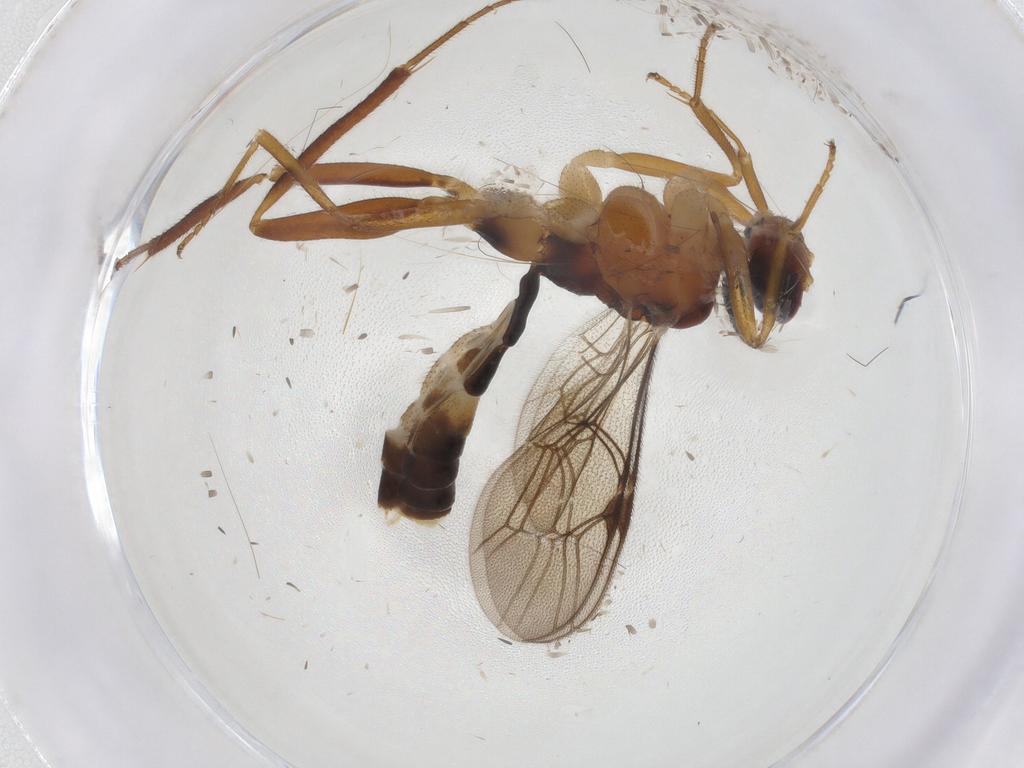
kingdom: Animalia
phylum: Arthropoda
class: Insecta
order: Hymenoptera
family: Ichneumonidae
